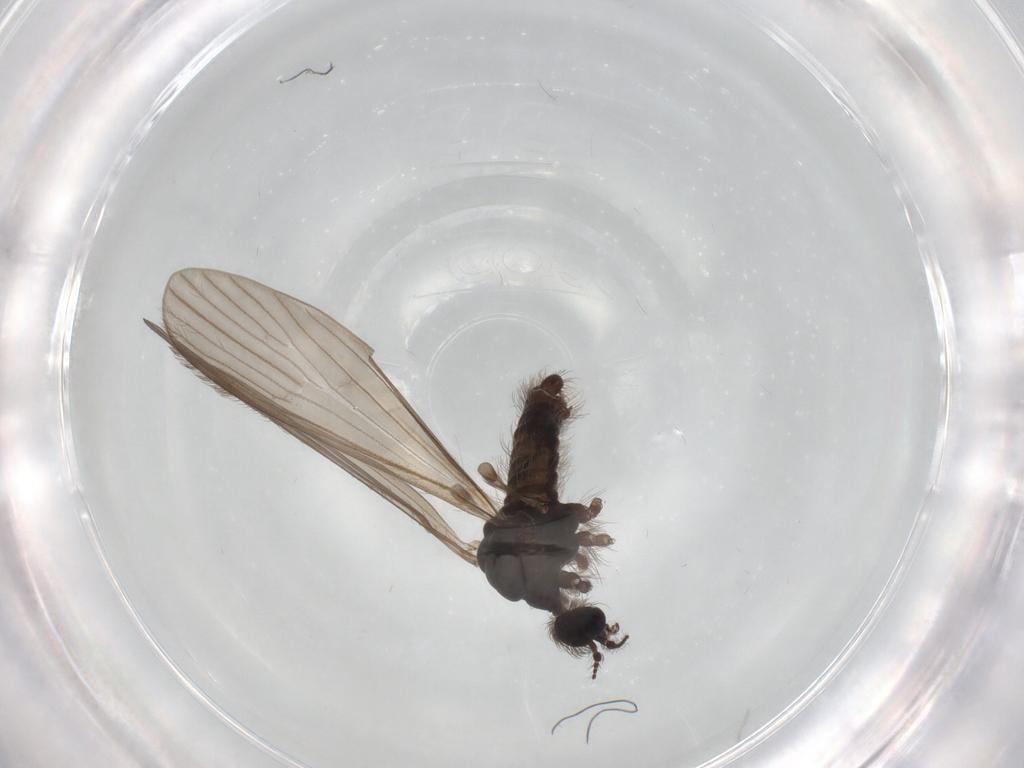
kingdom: Animalia
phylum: Arthropoda
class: Insecta
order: Diptera
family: Limoniidae
